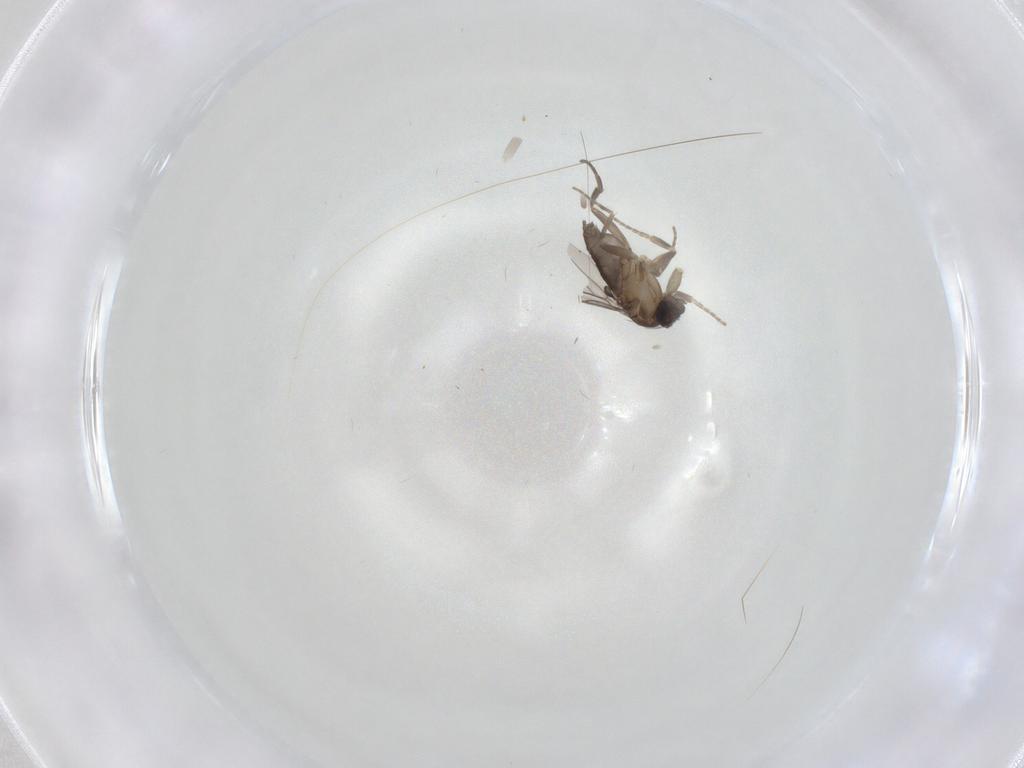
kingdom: Animalia
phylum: Arthropoda
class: Insecta
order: Diptera
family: Phoridae
